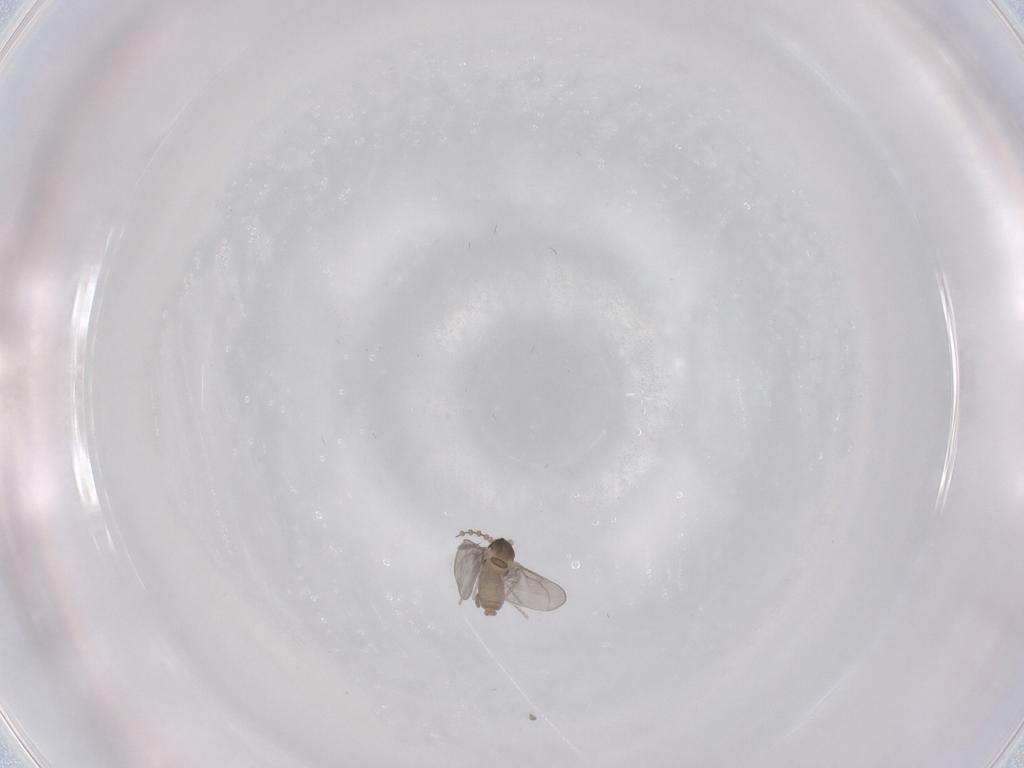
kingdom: Animalia
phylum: Arthropoda
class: Insecta
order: Diptera
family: Cecidomyiidae
